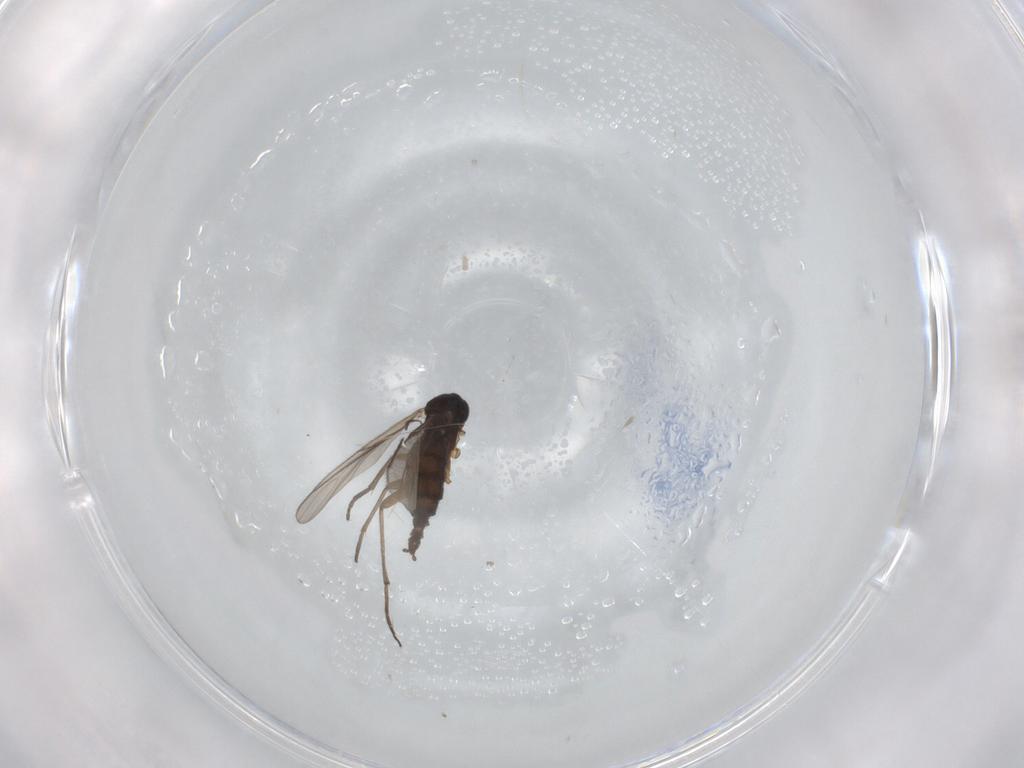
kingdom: Animalia
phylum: Arthropoda
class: Insecta
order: Diptera
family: Sciaridae
